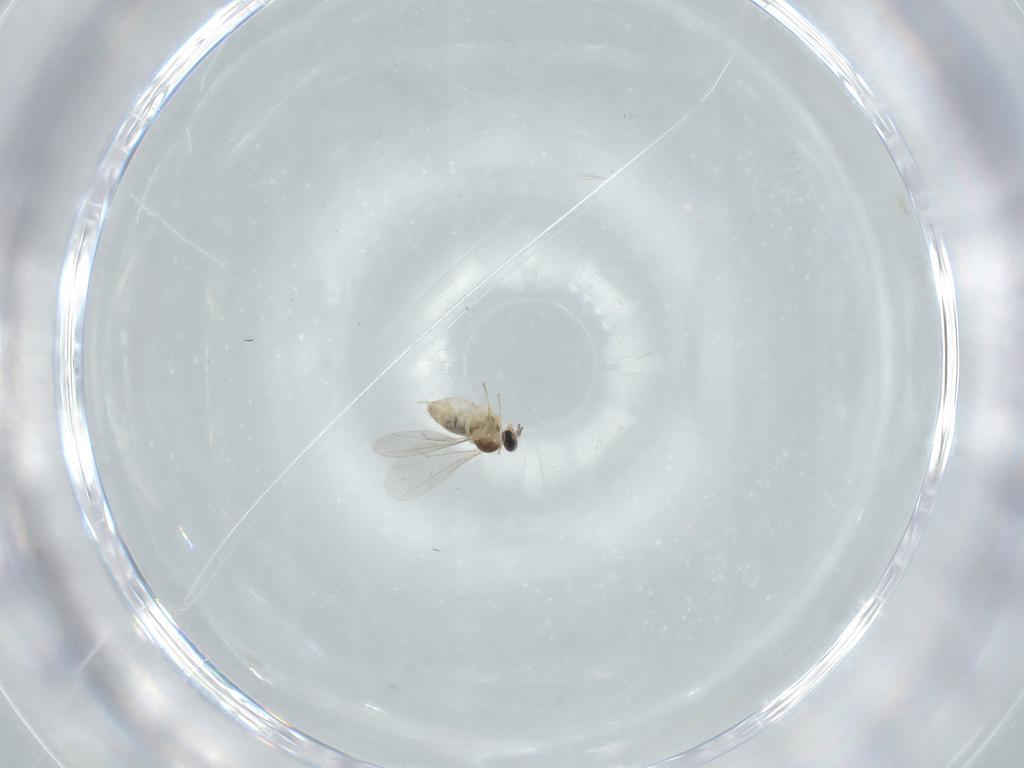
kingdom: Animalia
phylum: Arthropoda
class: Insecta
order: Diptera
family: Cecidomyiidae
